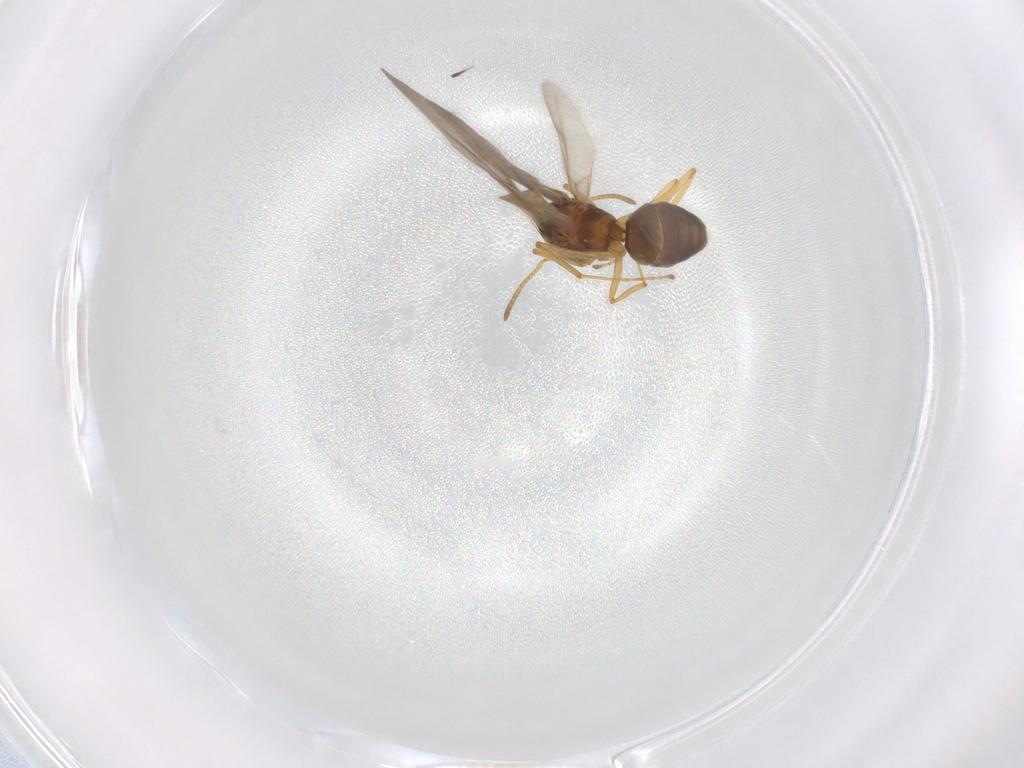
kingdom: Animalia
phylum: Arthropoda
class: Insecta
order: Hymenoptera
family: Formicidae
